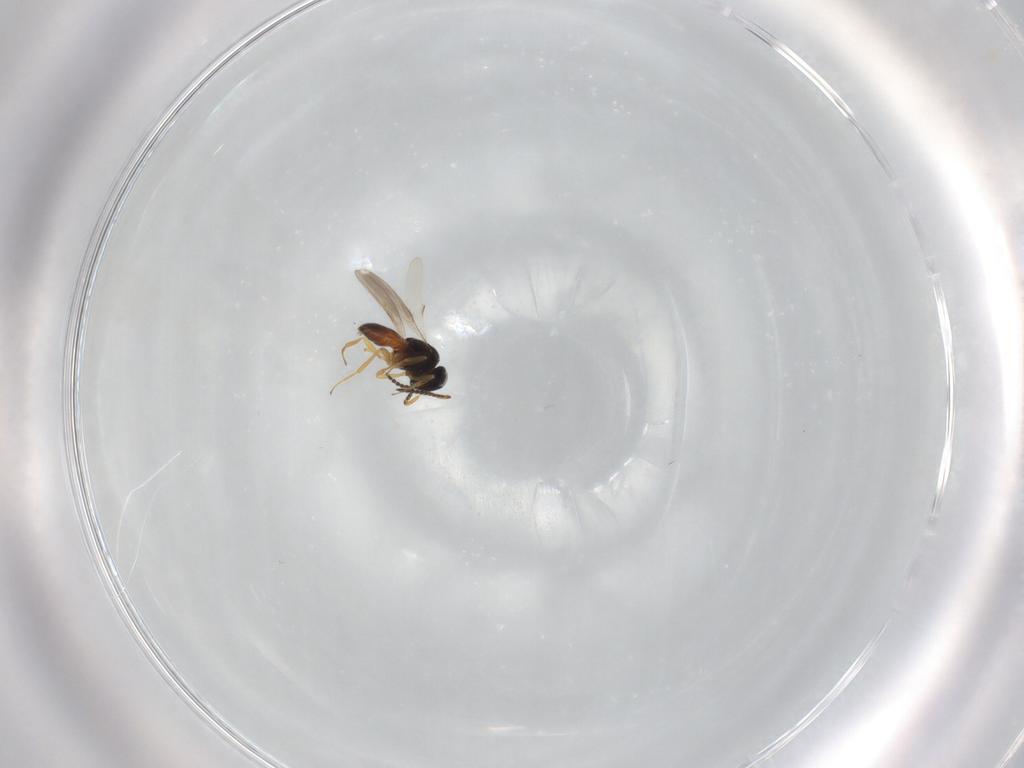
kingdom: Animalia
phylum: Arthropoda
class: Insecta
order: Hymenoptera
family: Scelionidae
